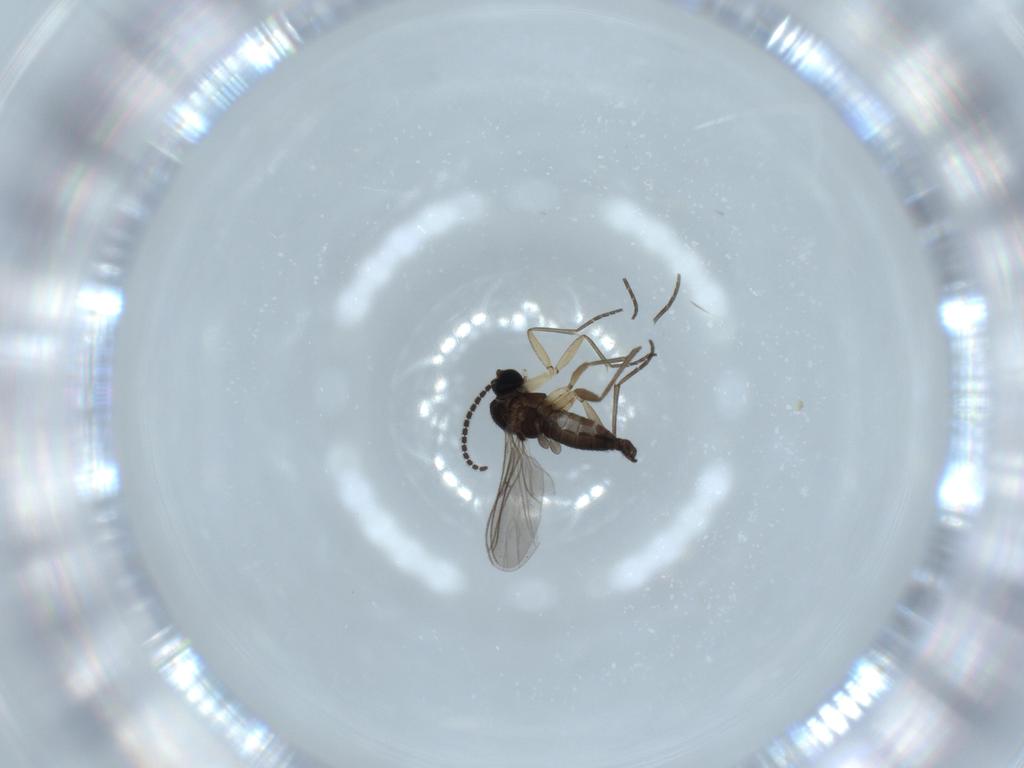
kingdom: Animalia
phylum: Arthropoda
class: Insecta
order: Diptera
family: Sciaridae
